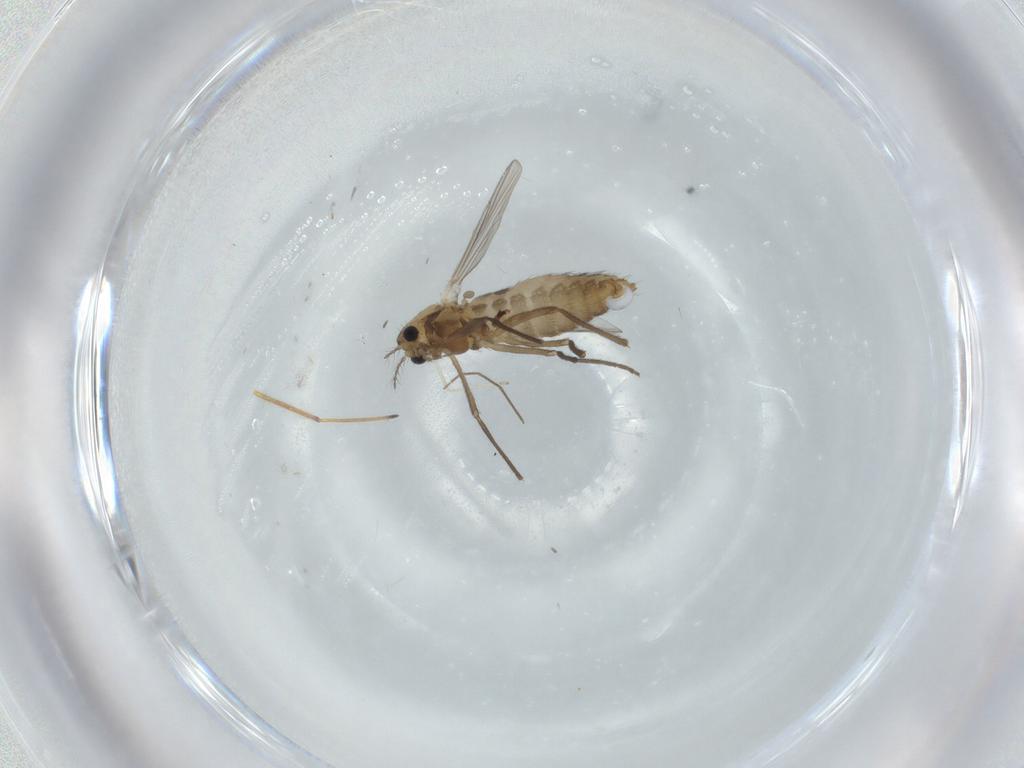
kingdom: Animalia
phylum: Arthropoda
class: Insecta
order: Diptera
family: Chironomidae
